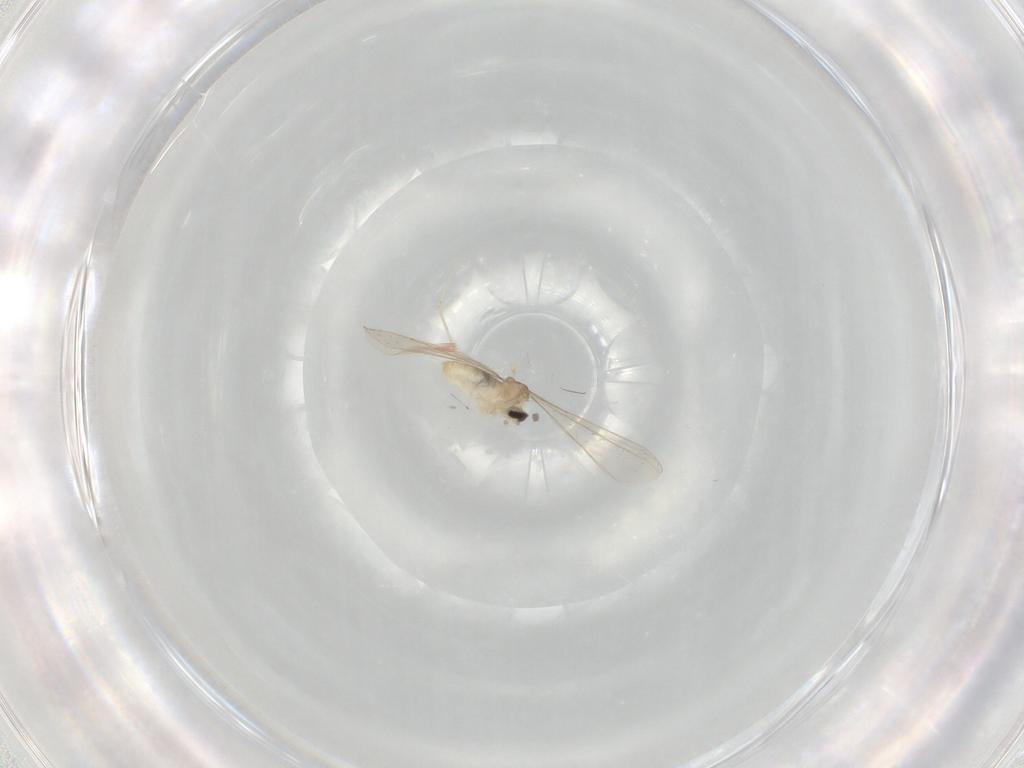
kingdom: Animalia
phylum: Arthropoda
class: Insecta
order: Diptera
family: Cecidomyiidae
